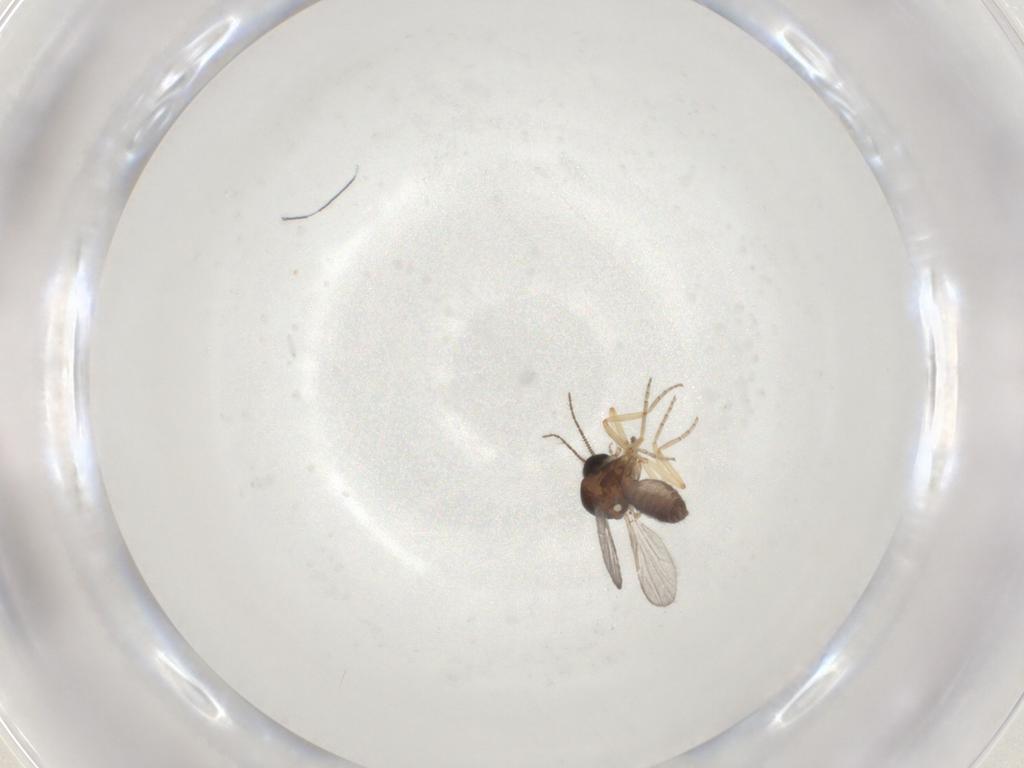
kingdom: Animalia
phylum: Arthropoda
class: Insecta
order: Diptera
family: Ceratopogonidae
